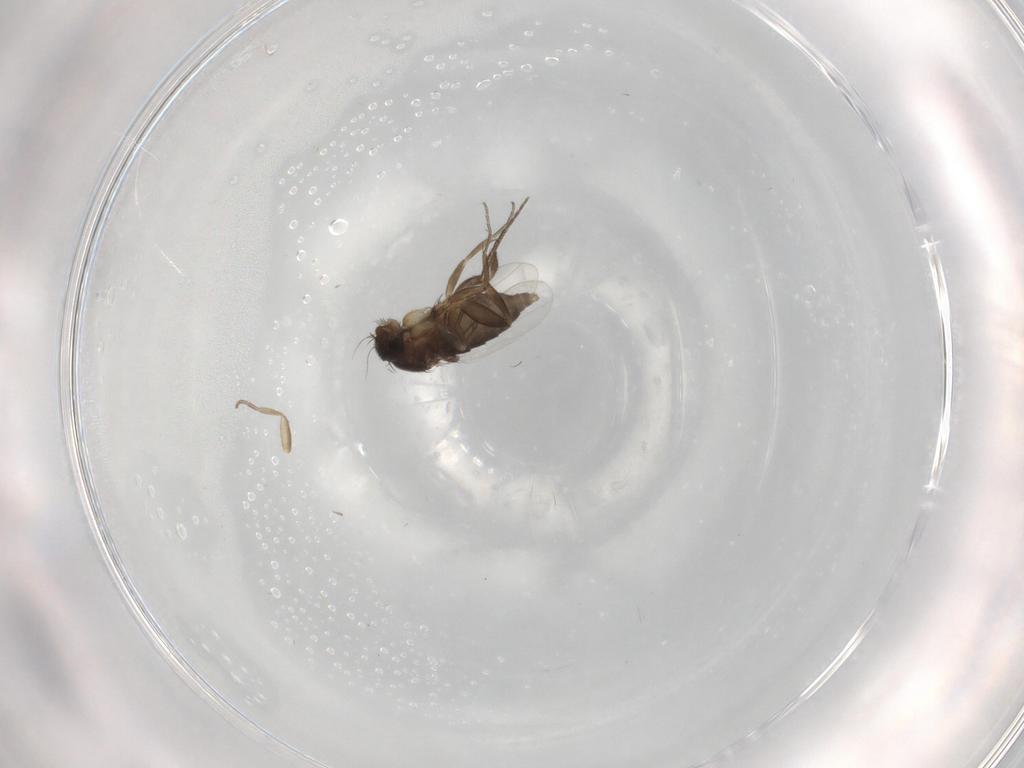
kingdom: Animalia
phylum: Arthropoda
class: Insecta
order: Diptera
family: Phoridae
